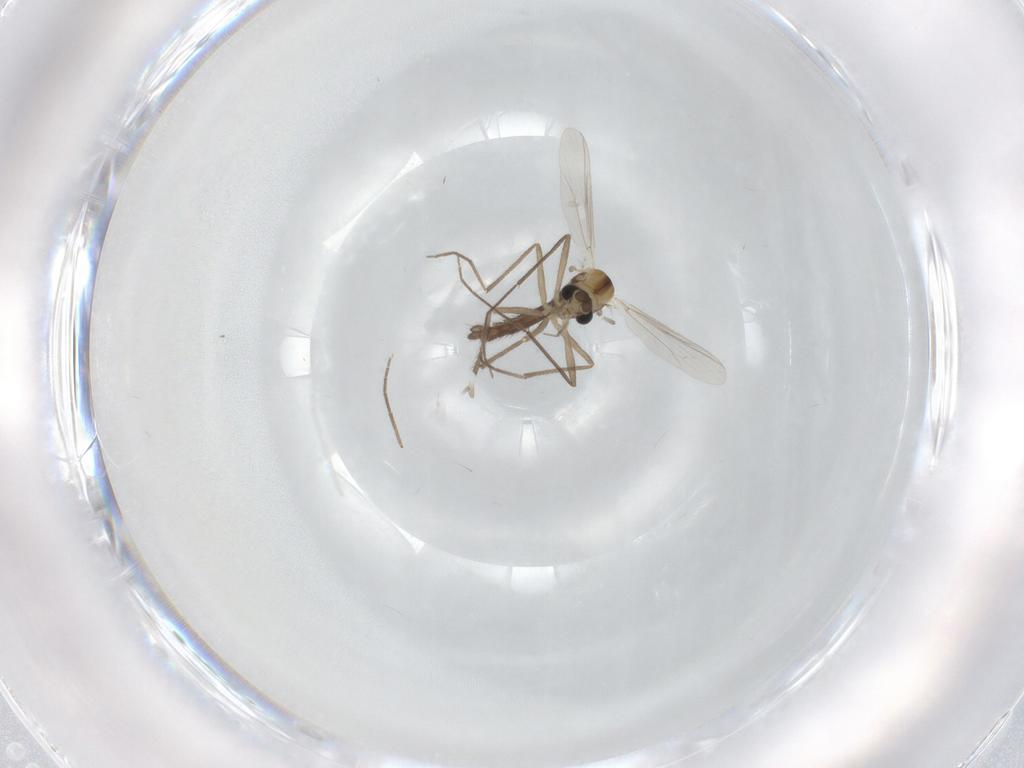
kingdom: Animalia
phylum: Arthropoda
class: Insecta
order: Diptera
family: Chironomidae
